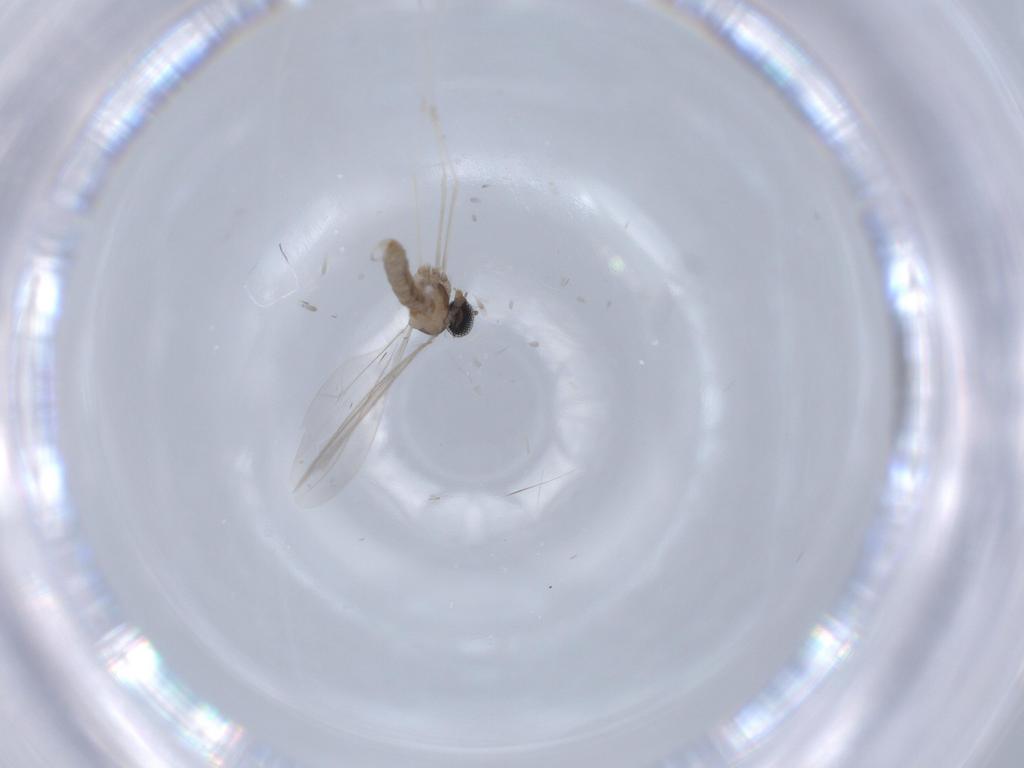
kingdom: Animalia
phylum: Arthropoda
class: Insecta
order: Diptera
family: Cecidomyiidae
